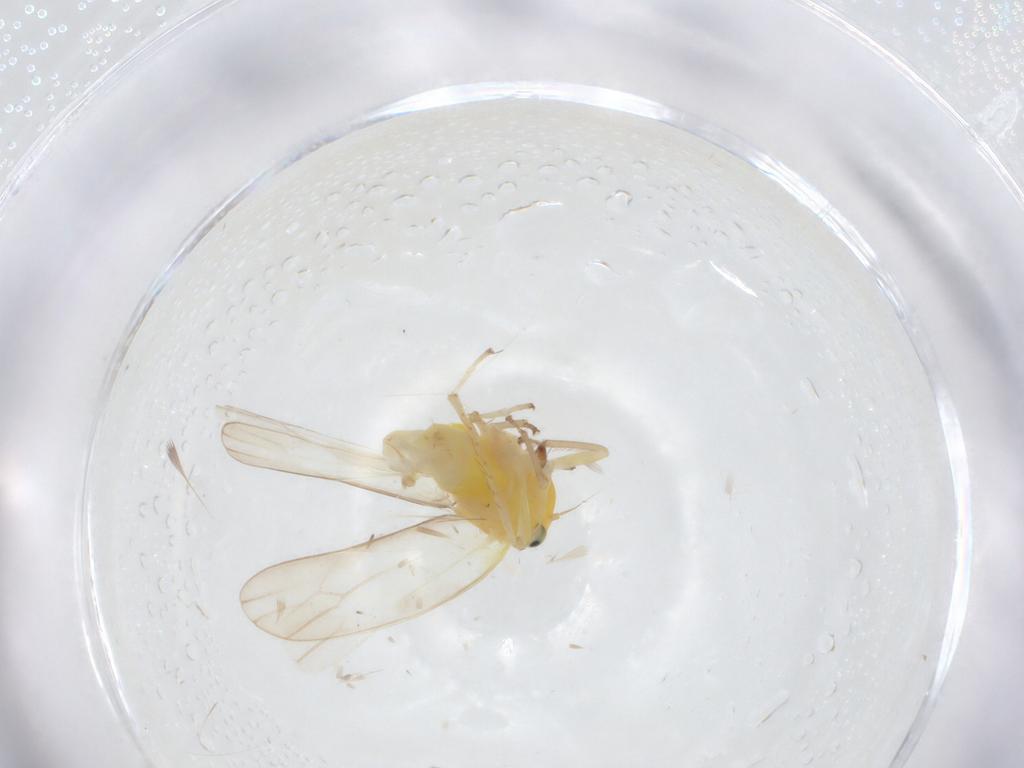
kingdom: Animalia
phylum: Arthropoda
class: Insecta
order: Hemiptera
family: Cicadellidae
